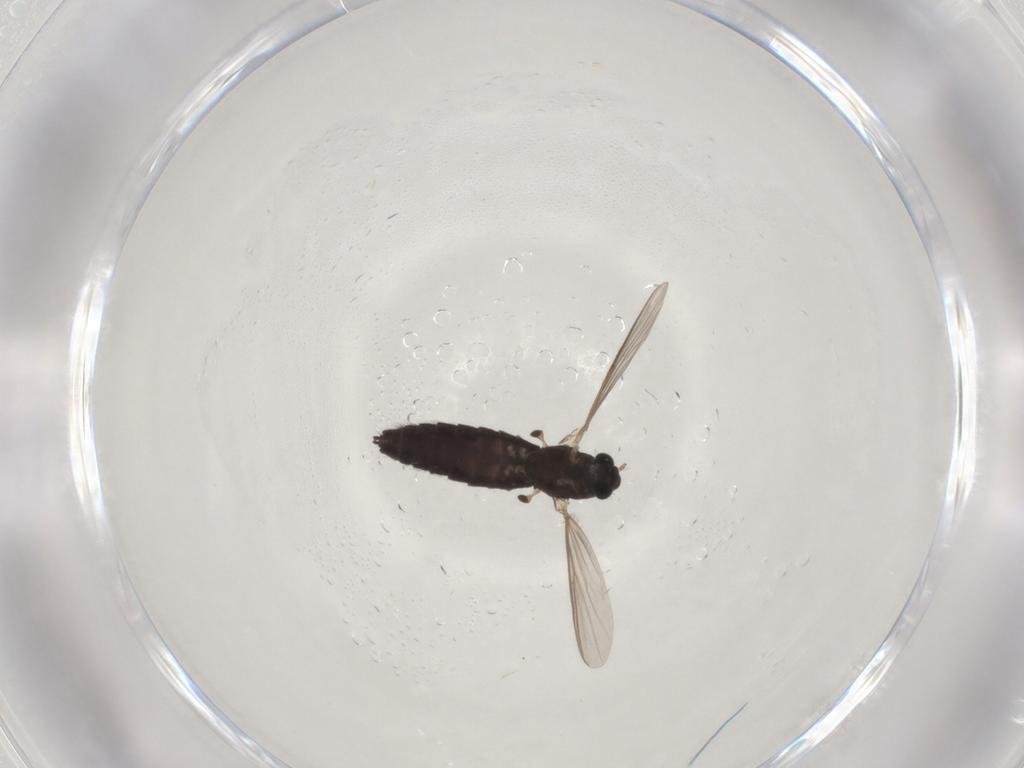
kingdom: Animalia
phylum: Arthropoda
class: Insecta
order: Diptera
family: Chironomidae
